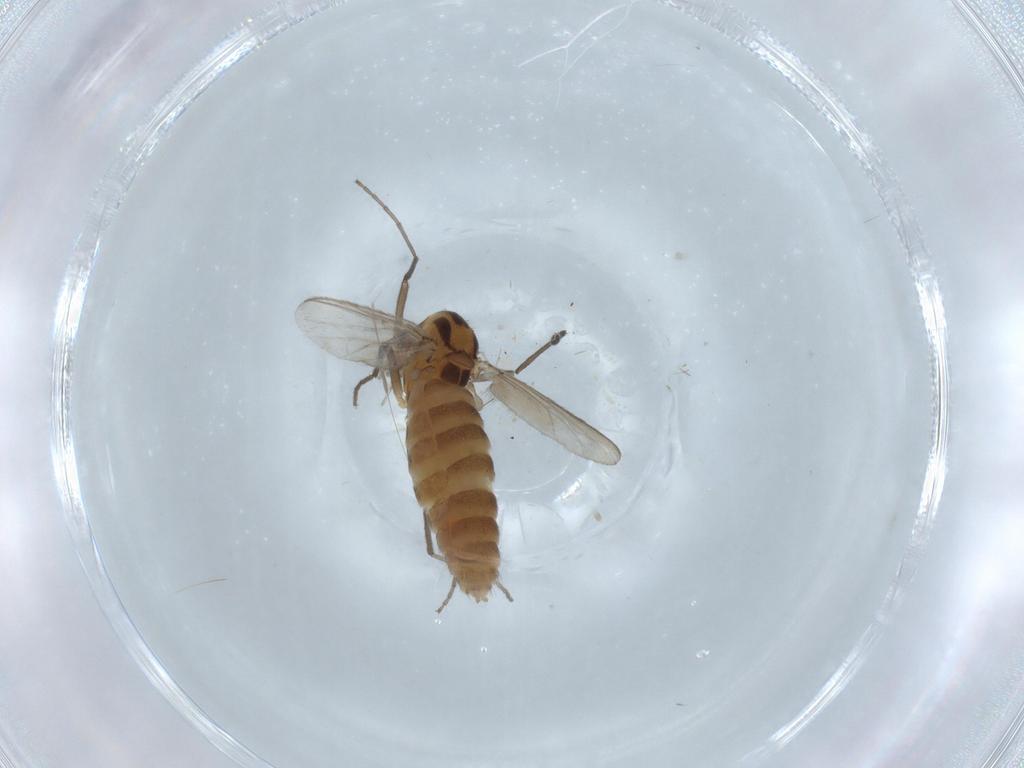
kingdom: Animalia
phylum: Arthropoda
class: Insecta
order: Diptera
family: Chironomidae
